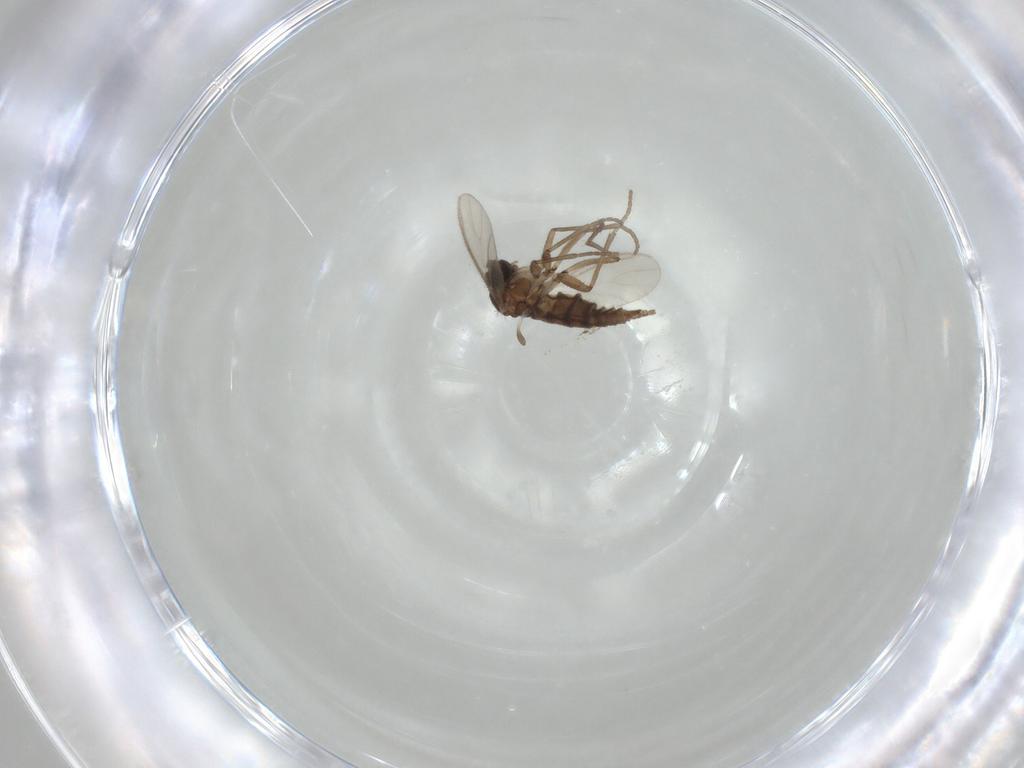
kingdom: Animalia
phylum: Arthropoda
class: Insecta
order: Diptera
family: Sciaridae
